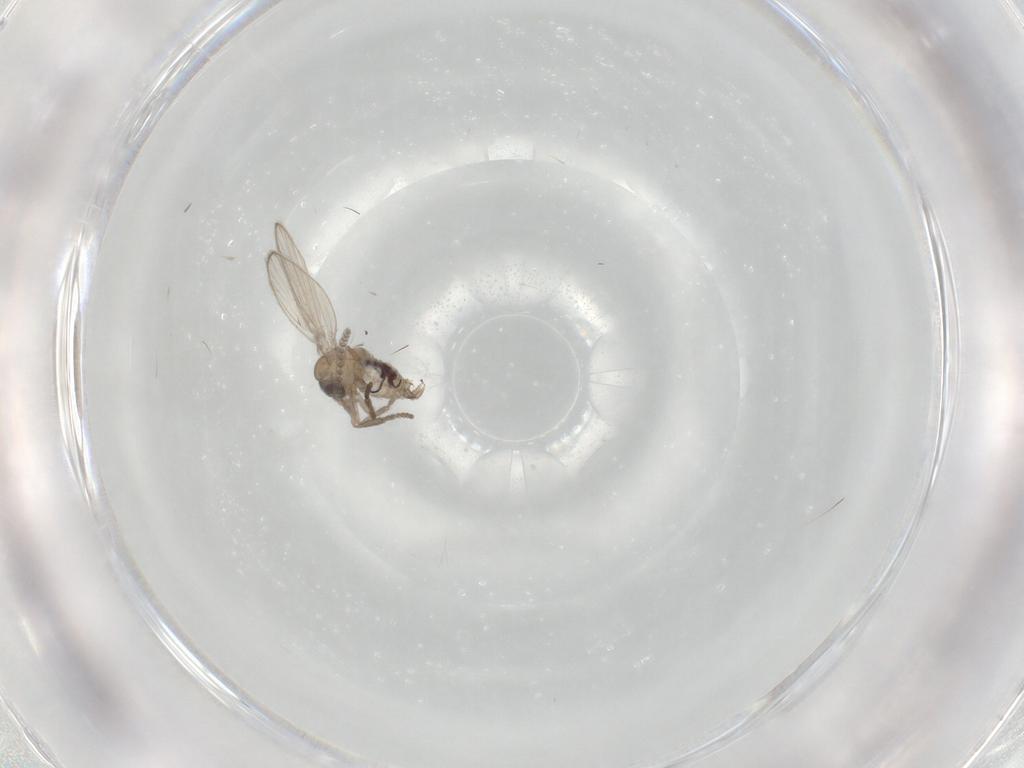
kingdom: Animalia
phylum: Arthropoda
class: Insecta
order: Diptera
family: Psychodidae
